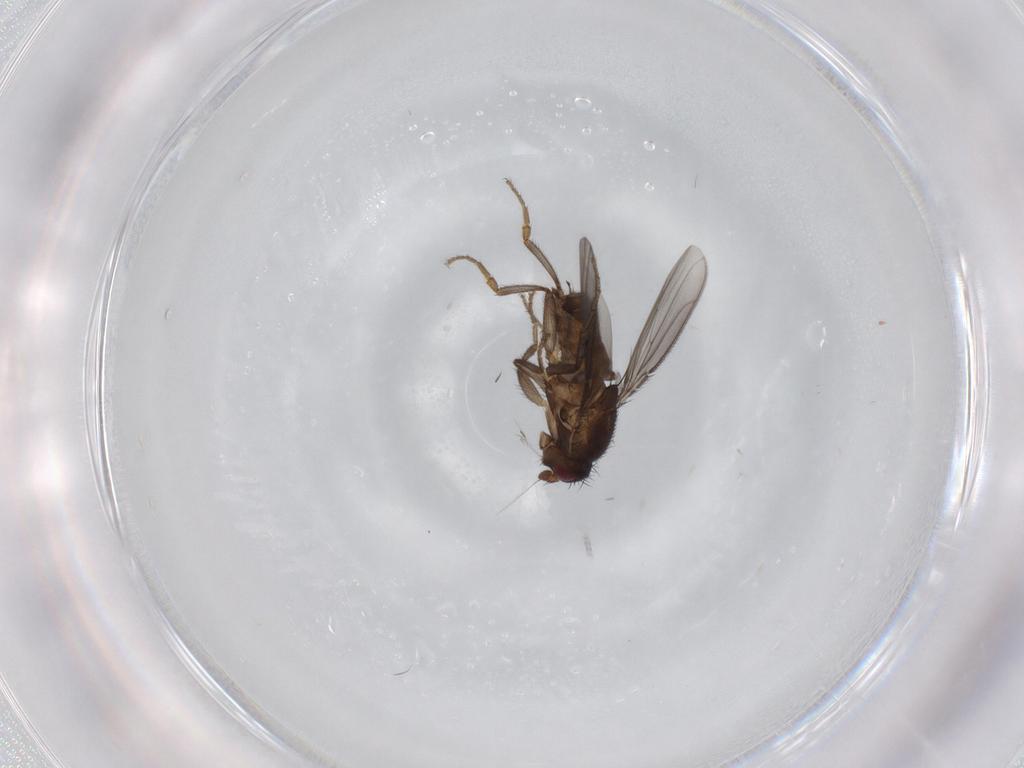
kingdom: Animalia
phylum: Arthropoda
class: Insecta
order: Diptera
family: Sphaeroceridae
